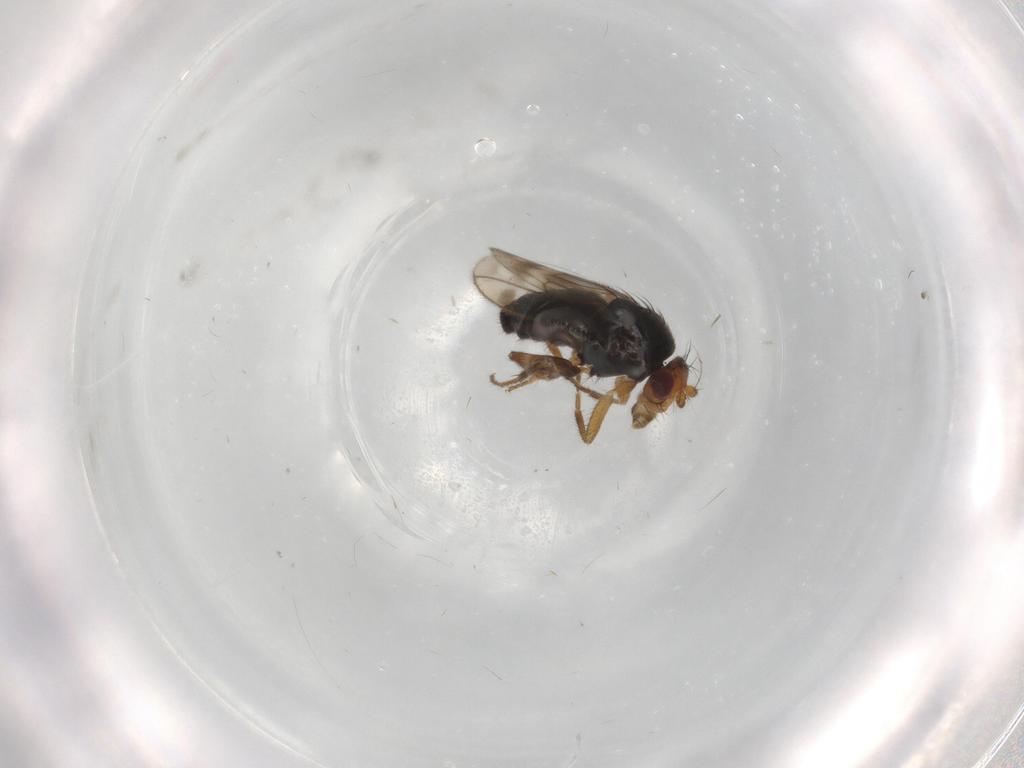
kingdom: Animalia
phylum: Arthropoda
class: Insecta
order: Diptera
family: Sphaeroceridae
